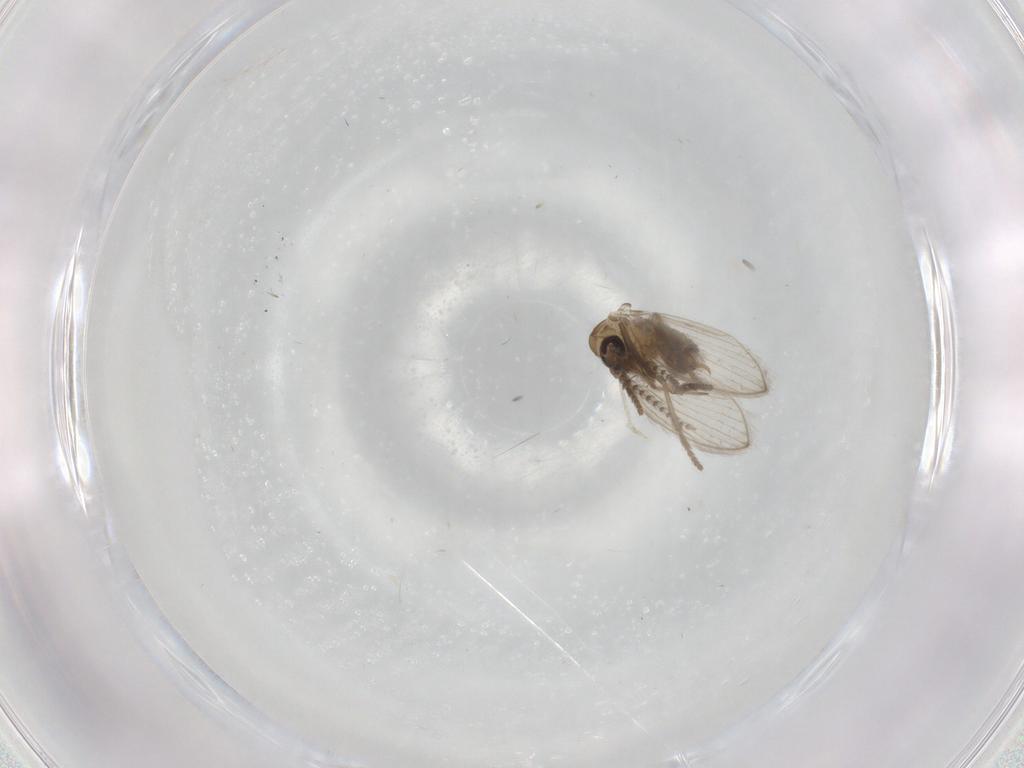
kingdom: Animalia
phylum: Arthropoda
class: Insecta
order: Diptera
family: Psychodidae
